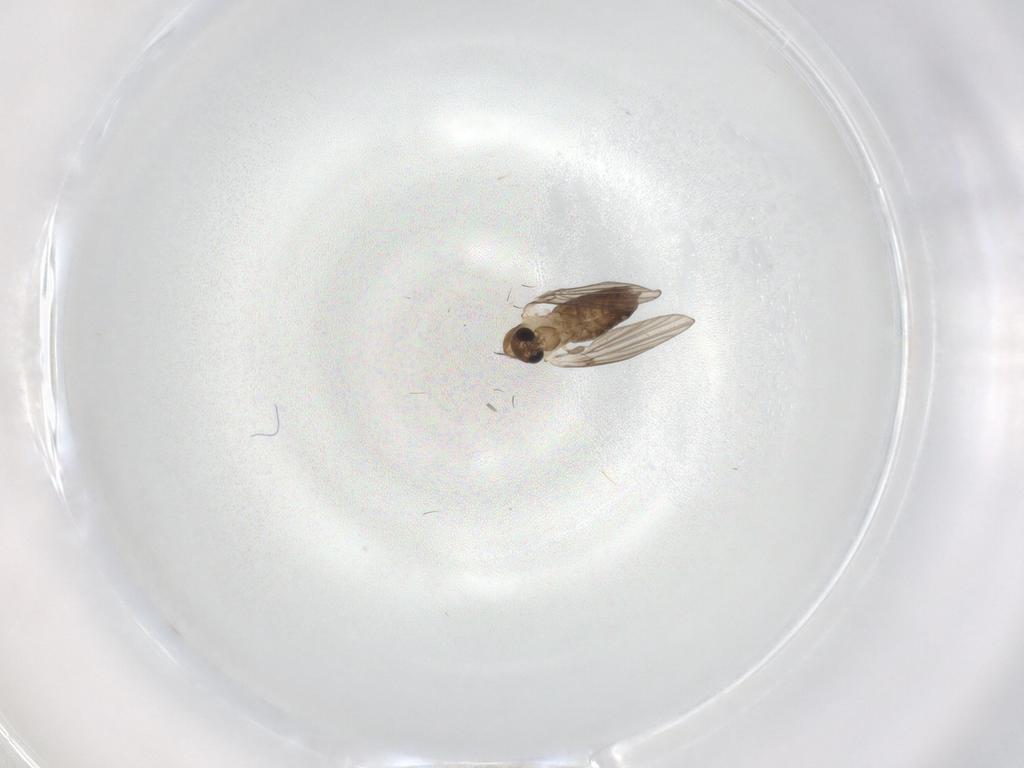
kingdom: Animalia
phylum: Arthropoda
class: Insecta
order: Diptera
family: Psychodidae
